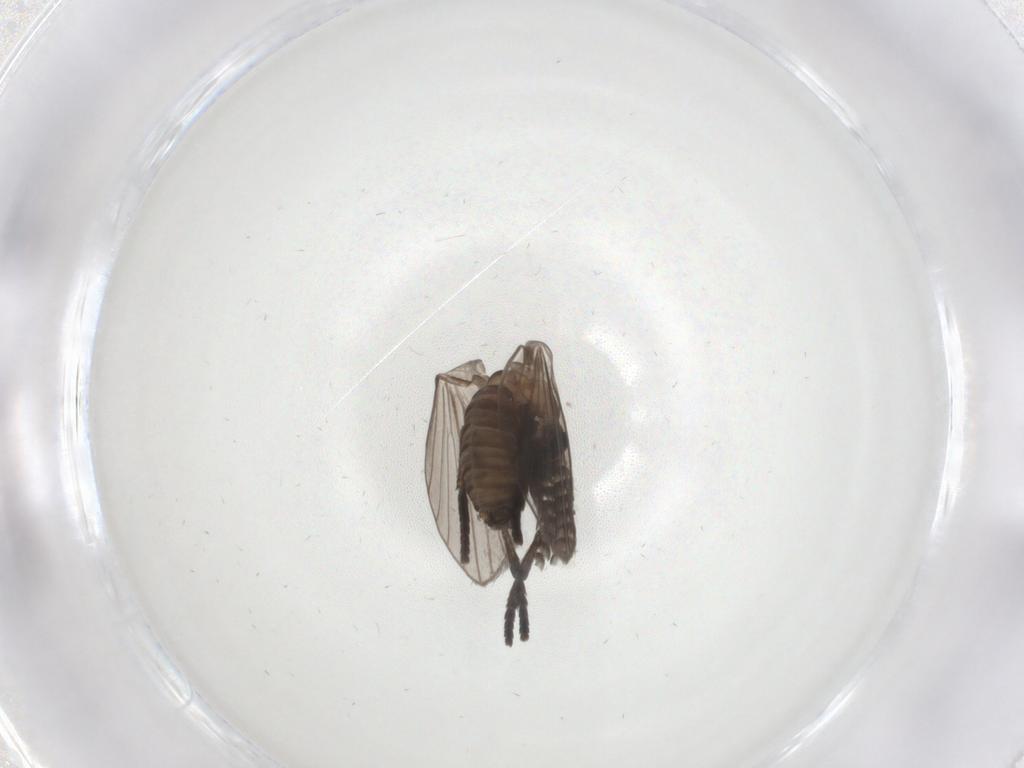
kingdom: Animalia
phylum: Arthropoda
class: Insecta
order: Diptera
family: Psychodidae
